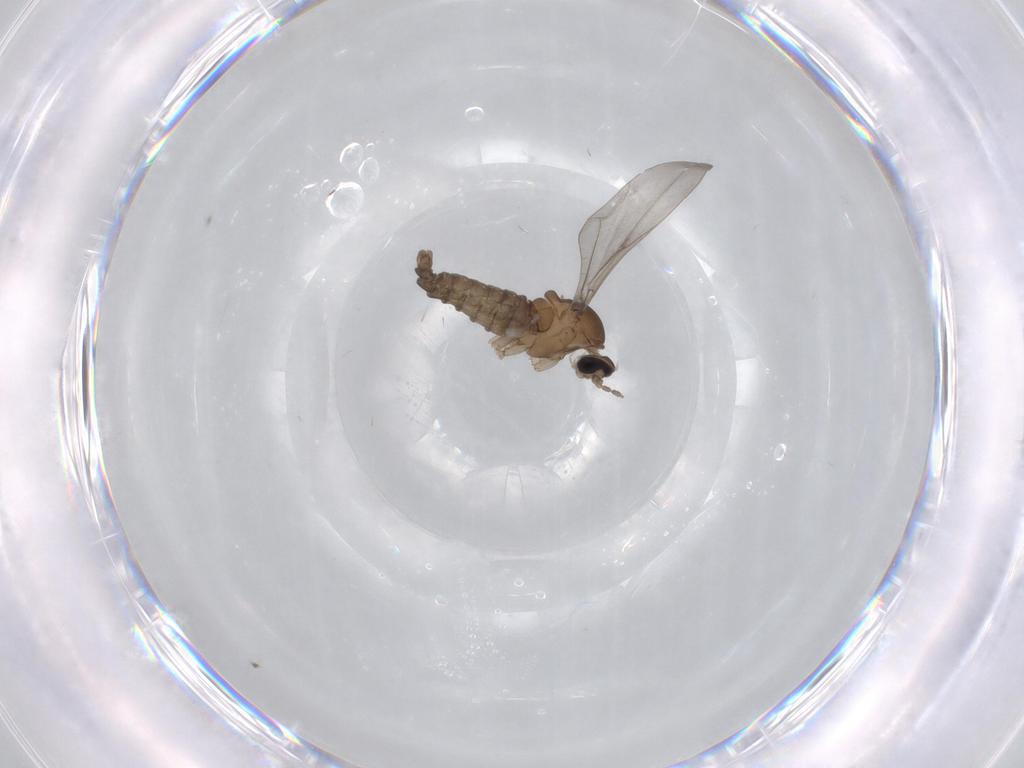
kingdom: Animalia
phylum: Arthropoda
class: Insecta
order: Diptera
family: Cecidomyiidae
